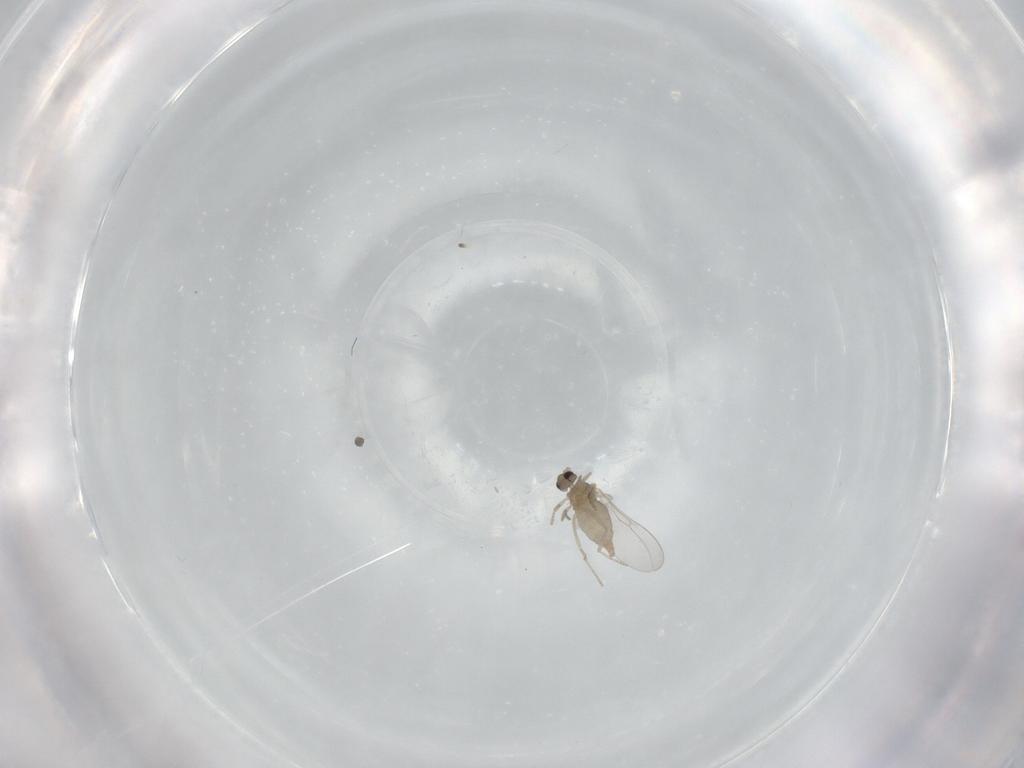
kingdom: Animalia
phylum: Arthropoda
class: Insecta
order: Diptera
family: Cecidomyiidae
